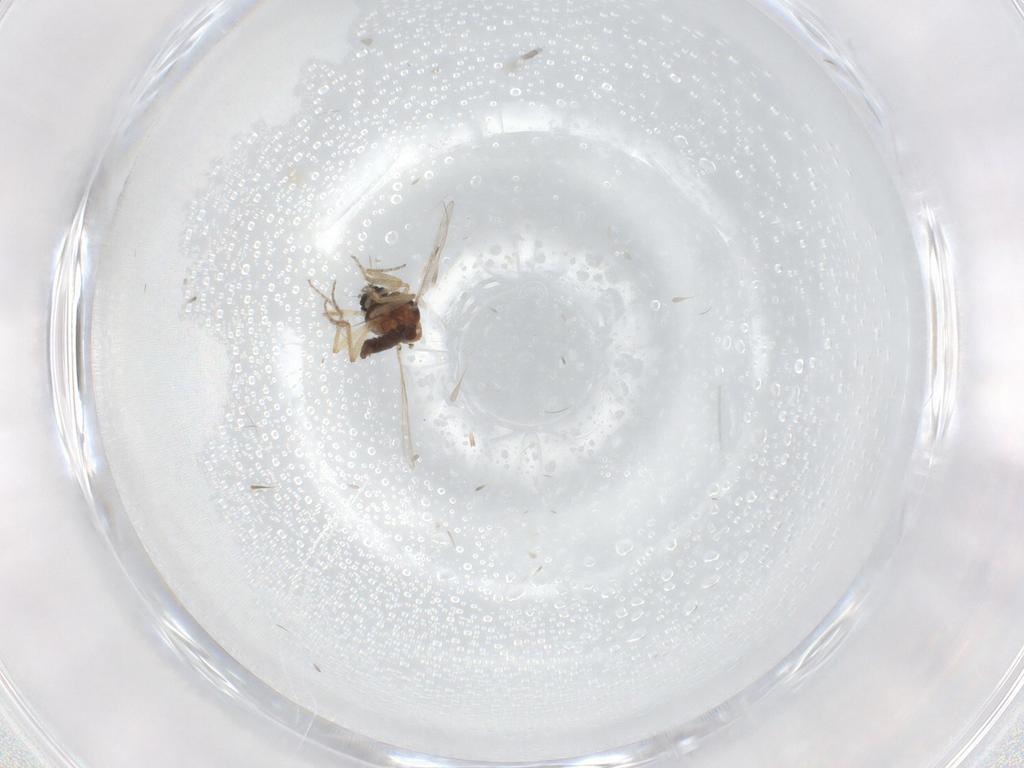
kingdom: Animalia
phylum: Arthropoda
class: Insecta
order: Diptera
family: Ceratopogonidae
